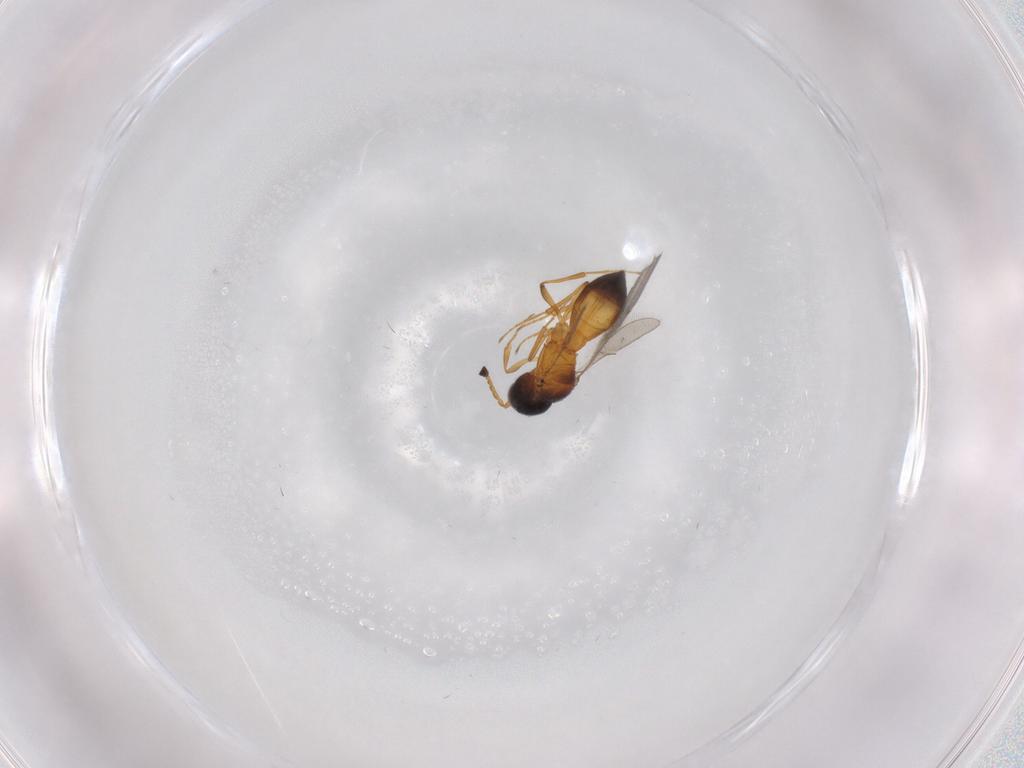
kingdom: Animalia
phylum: Arthropoda
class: Insecta
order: Hymenoptera
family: Scelionidae
